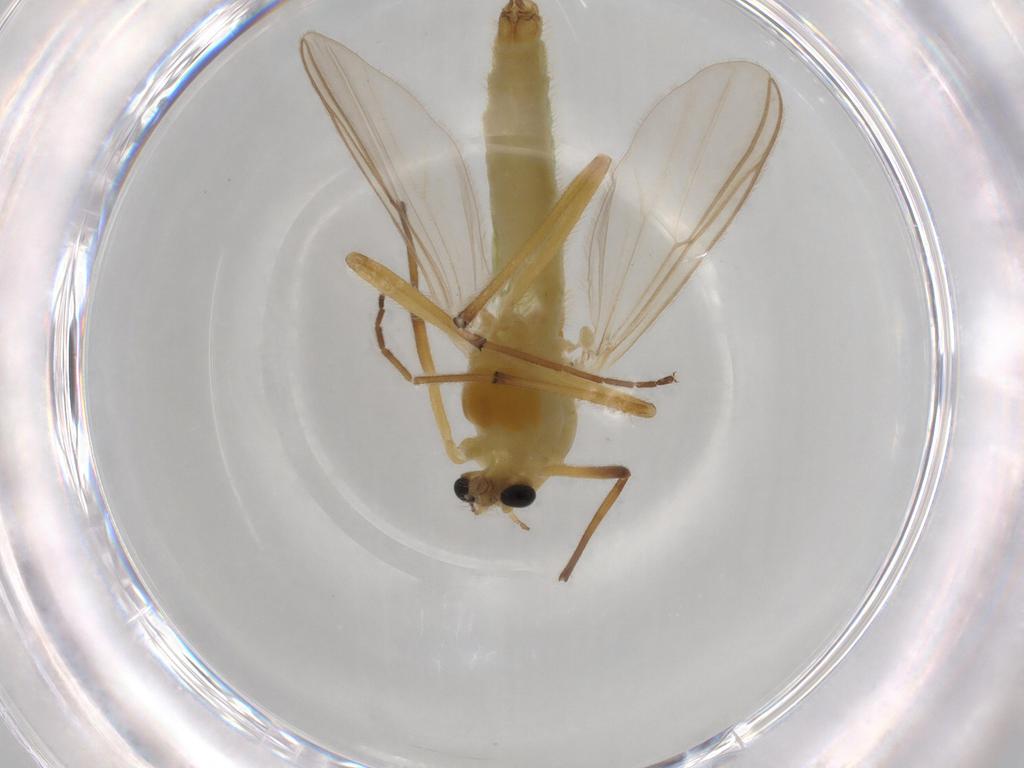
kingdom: Animalia
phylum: Arthropoda
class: Insecta
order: Diptera
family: Chironomidae
